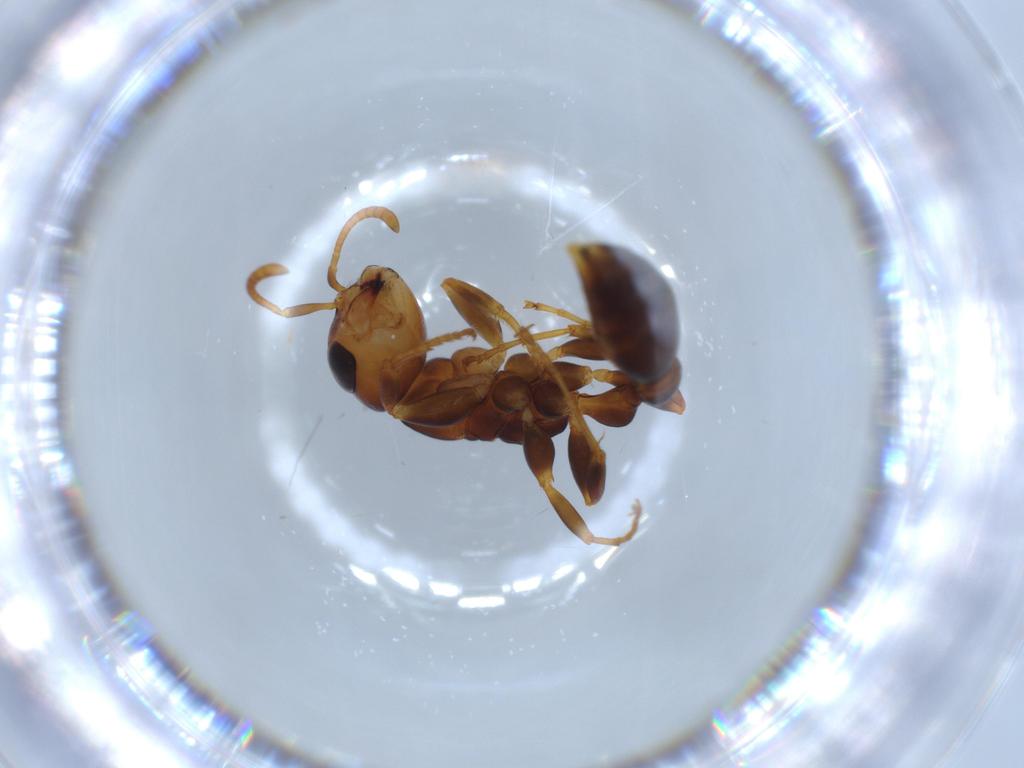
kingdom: Animalia
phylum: Arthropoda
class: Insecta
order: Hymenoptera
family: Formicidae
